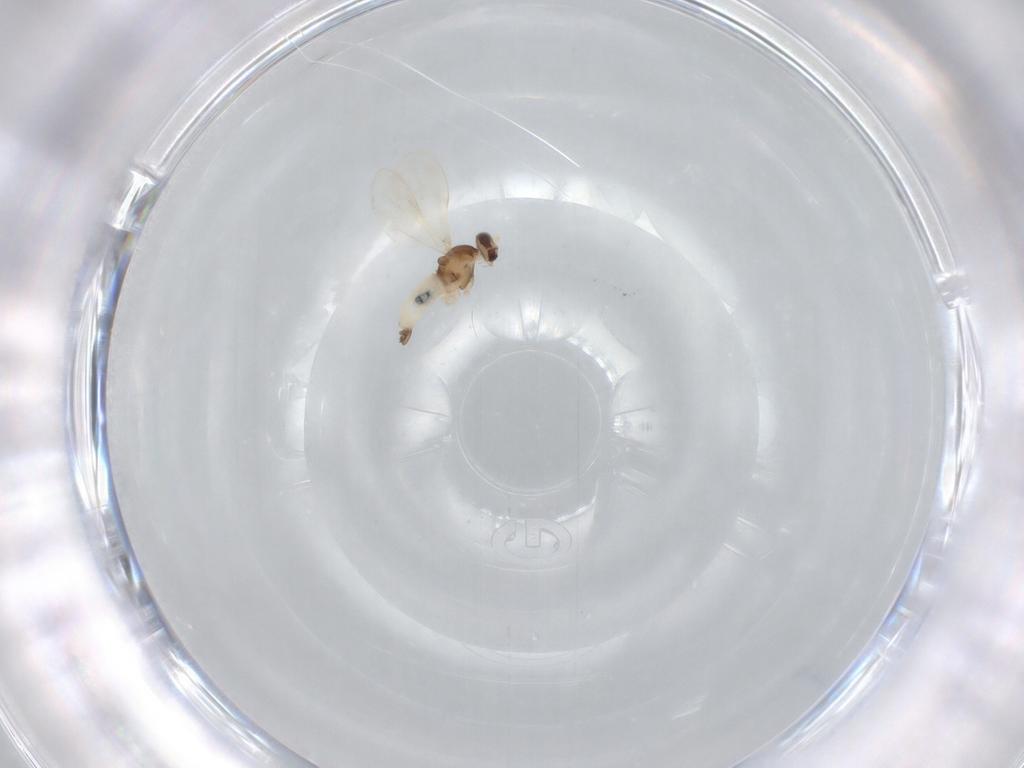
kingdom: Animalia
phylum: Arthropoda
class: Insecta
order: Diptera
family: Cecidomyiidae
